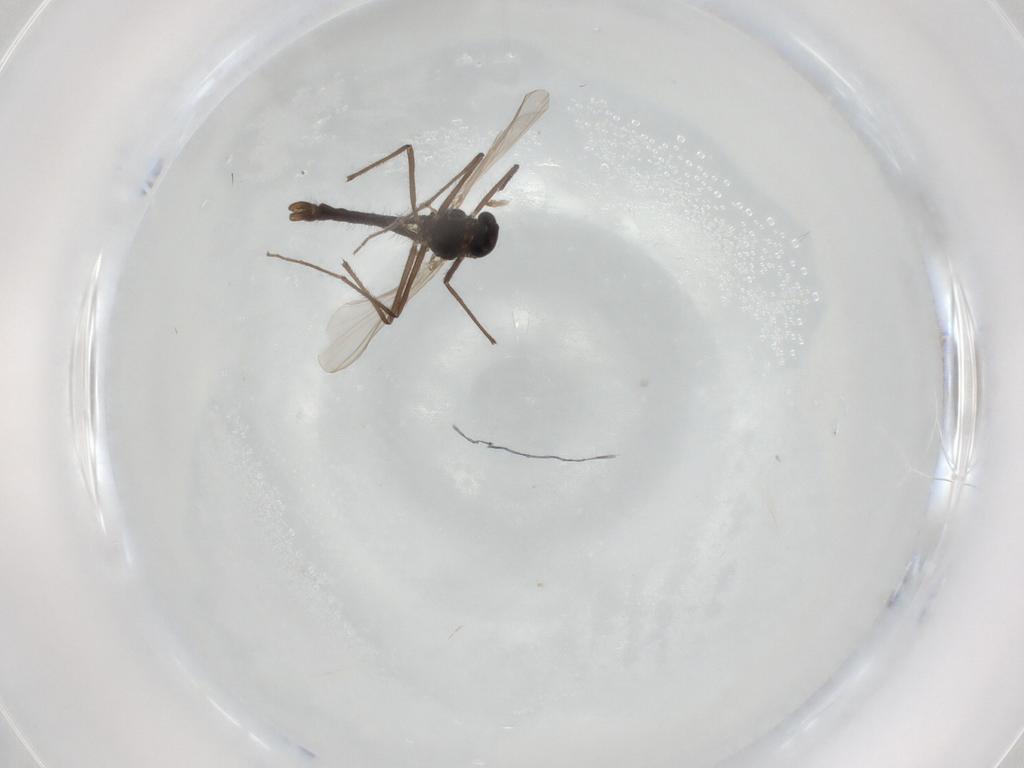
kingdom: Animalia
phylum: Arthropoda
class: Insecta
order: Diptera
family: Chironomidae
